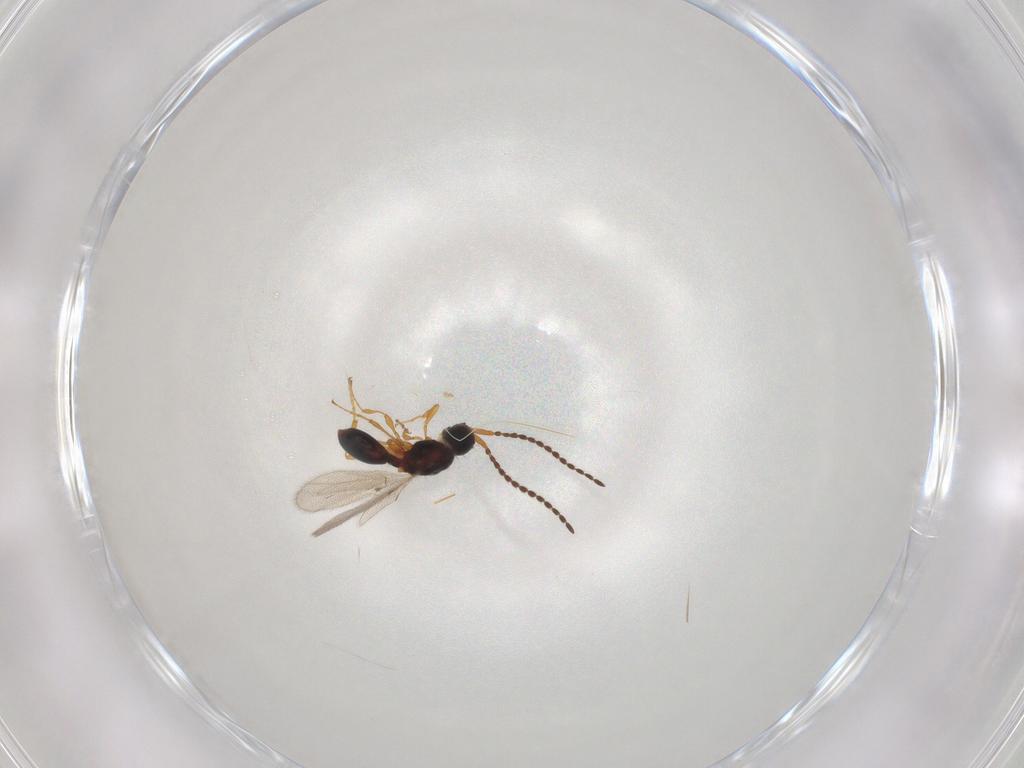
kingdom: Animalia
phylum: Arthropoda
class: Insecta
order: Hymenoptera
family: Diapriidae
